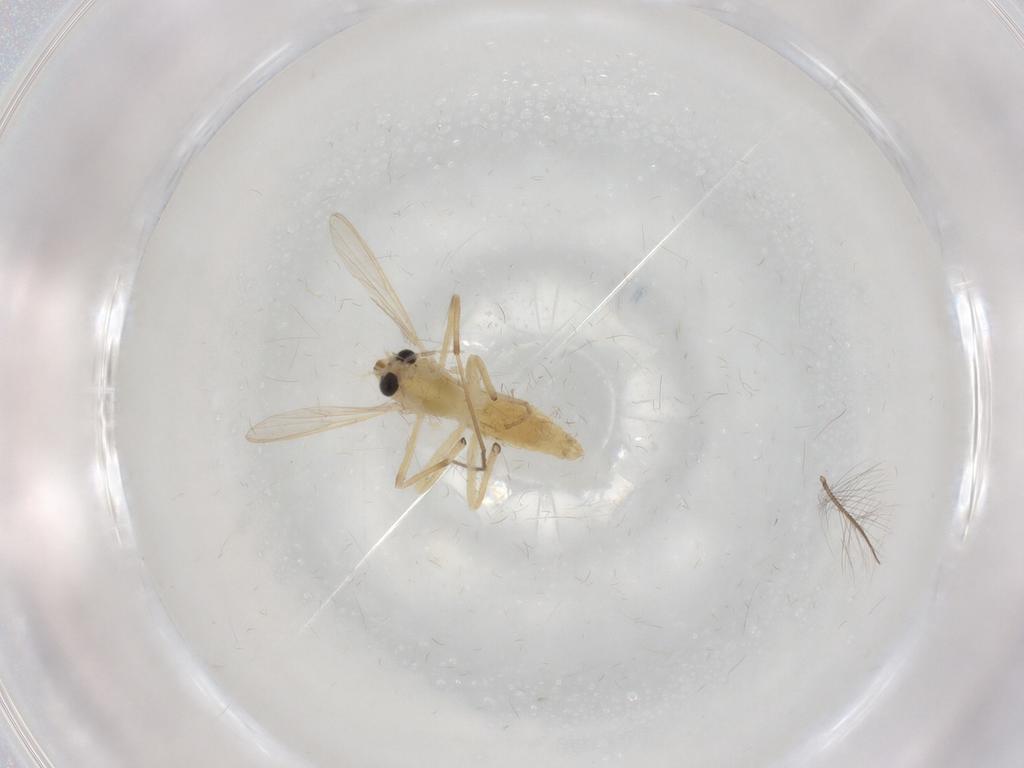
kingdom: Animalia
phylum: Arthropoda
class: Insecta
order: Diptera
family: Chironomidae
